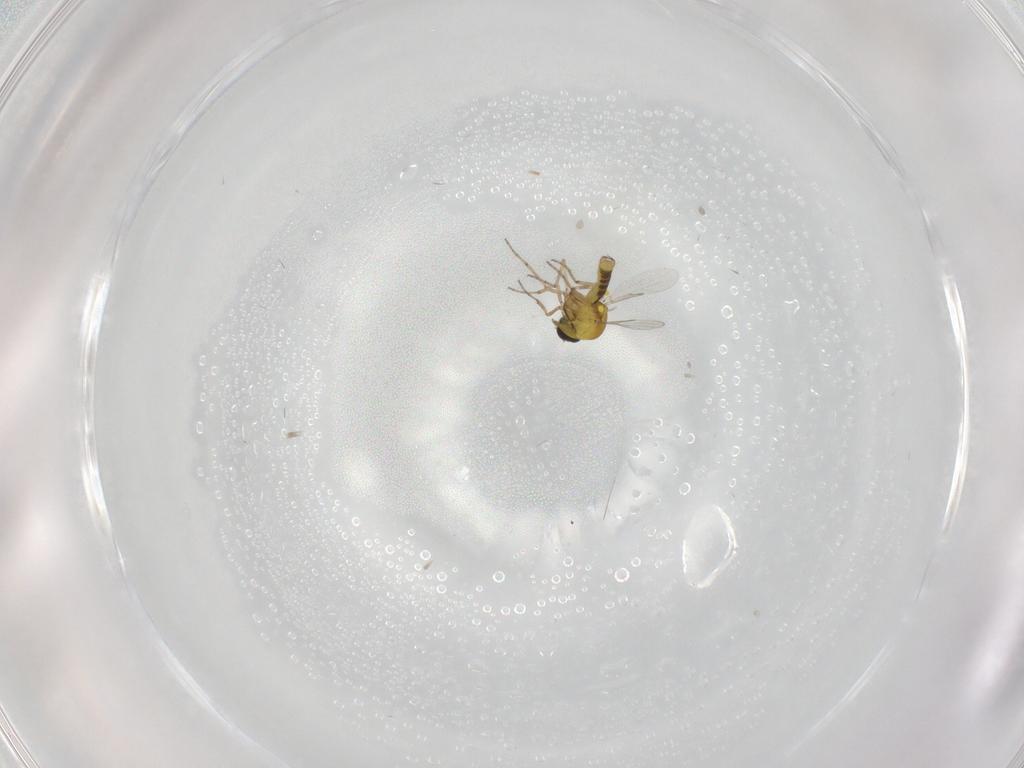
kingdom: Animalia
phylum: Arthropoda
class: Insecta
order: Diptera
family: Phoridae
